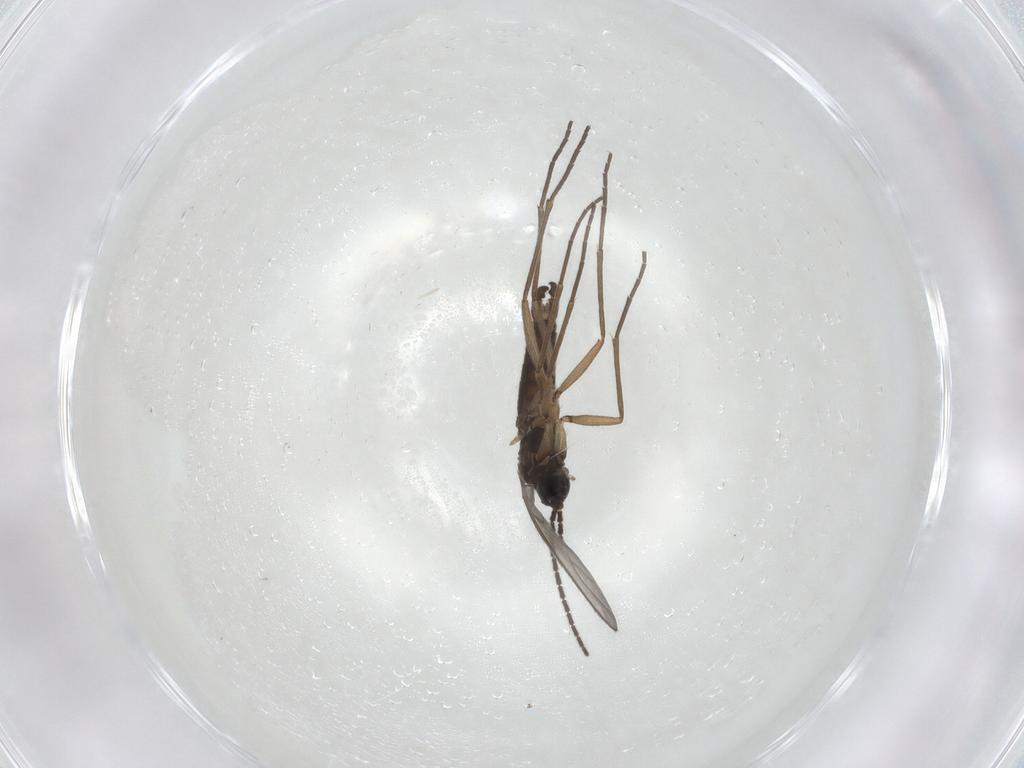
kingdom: Animalia
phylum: Arthropoda
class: Insecta
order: Diptera
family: Sciaridae
